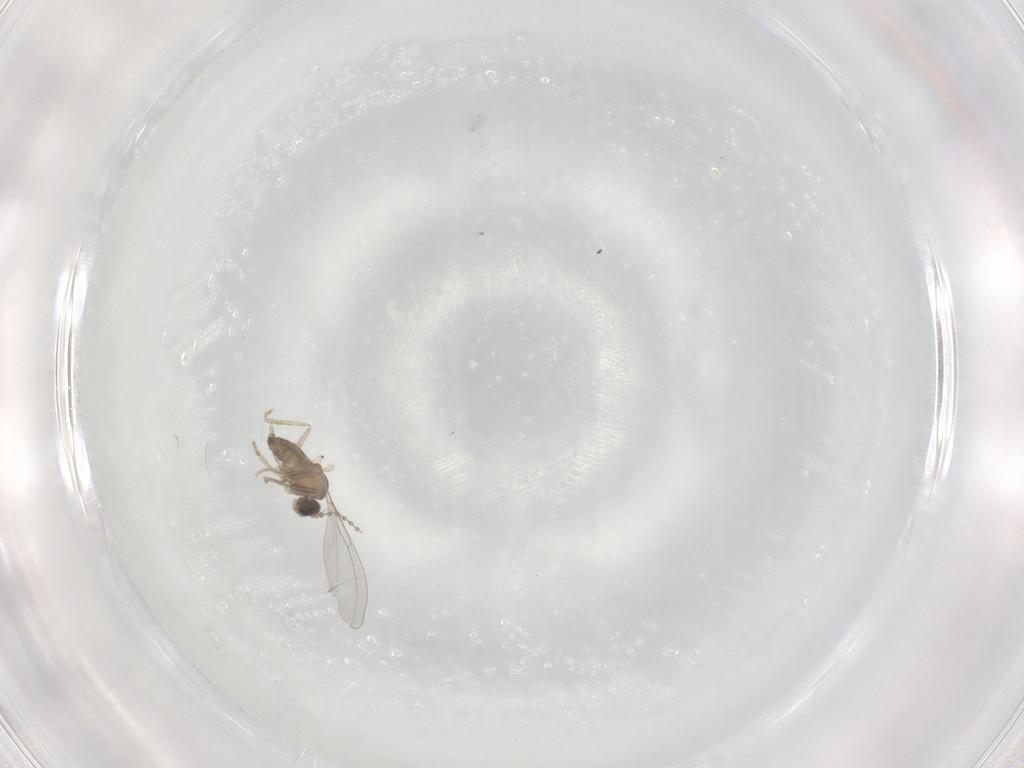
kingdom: Animalia
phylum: Arthropoda
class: Insecta
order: Diptera
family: Cecidomyiidae
